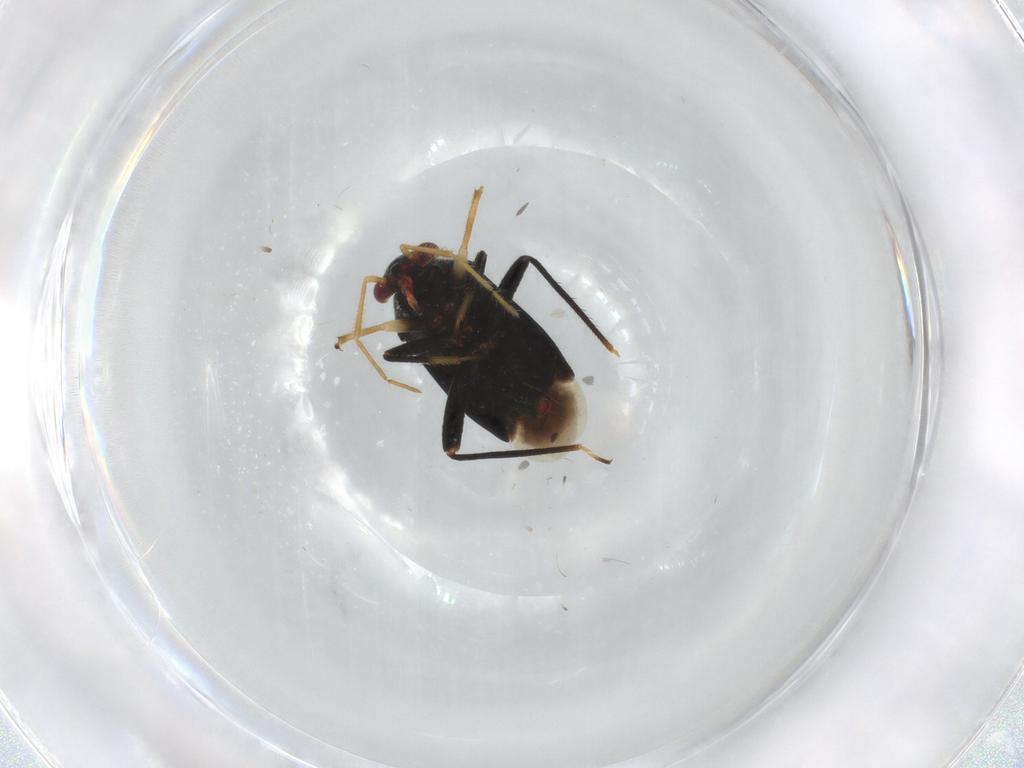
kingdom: Animalia
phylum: Arthropoda
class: Insecta
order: Hemiptera
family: Miridae
